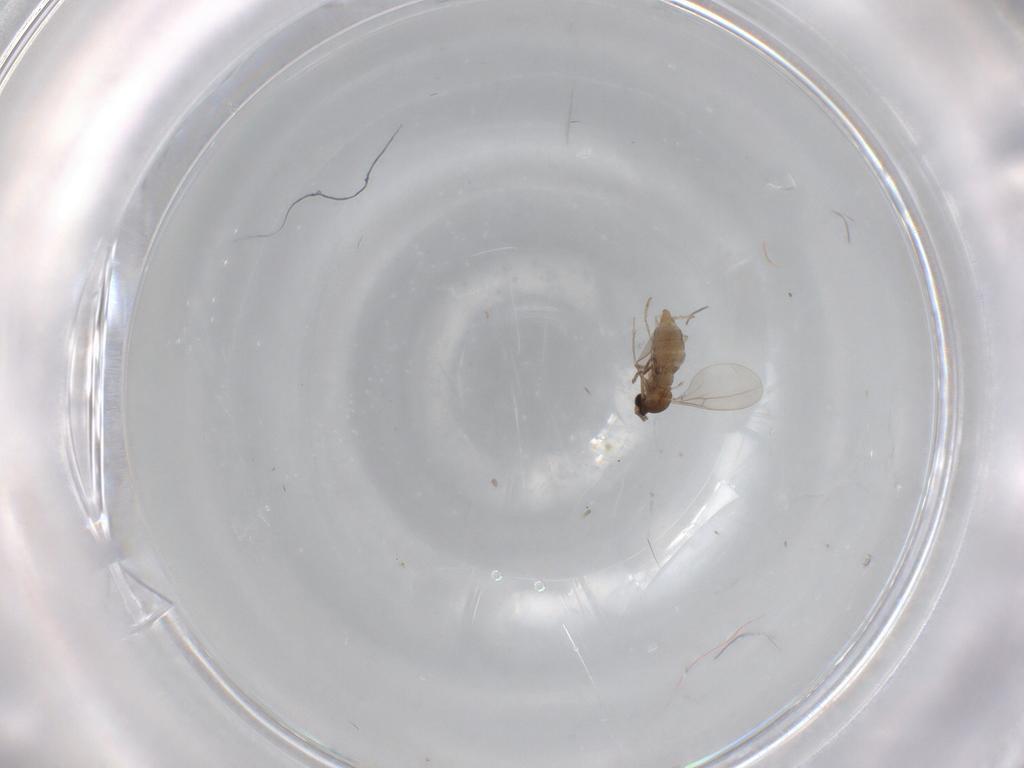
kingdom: Animalia
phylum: Arthropoda
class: Insecta
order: Diptera
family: Cecidomyiidae
